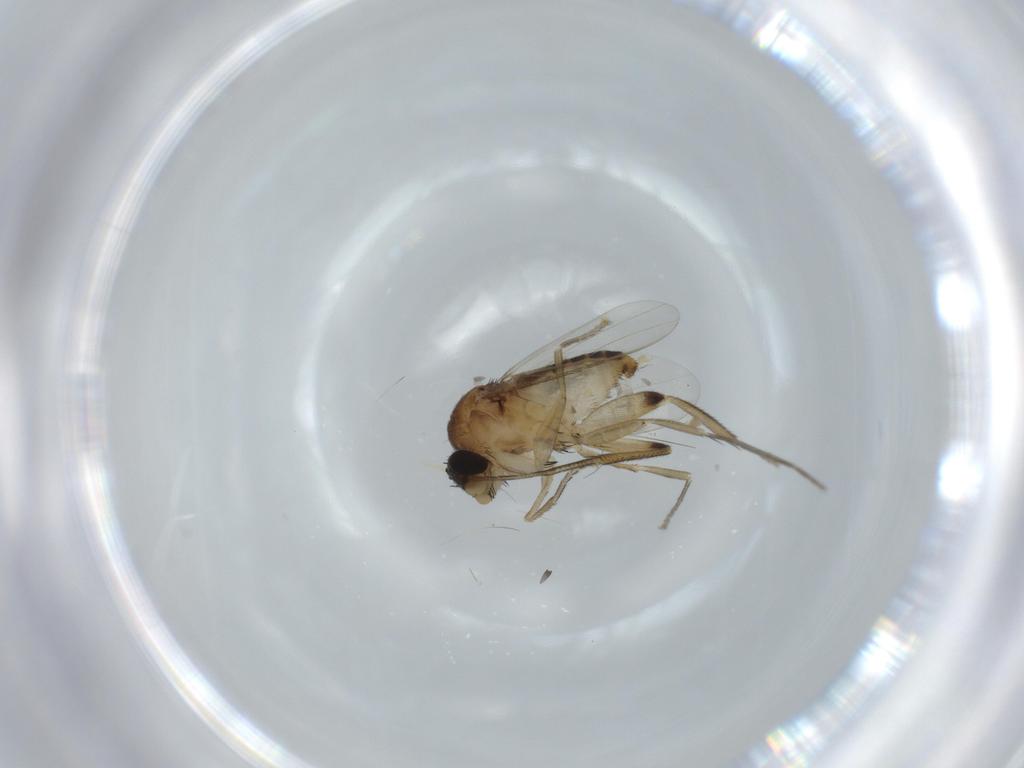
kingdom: Animalia
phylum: Arthropoda
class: Insecta
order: Diptera
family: Phoridae
